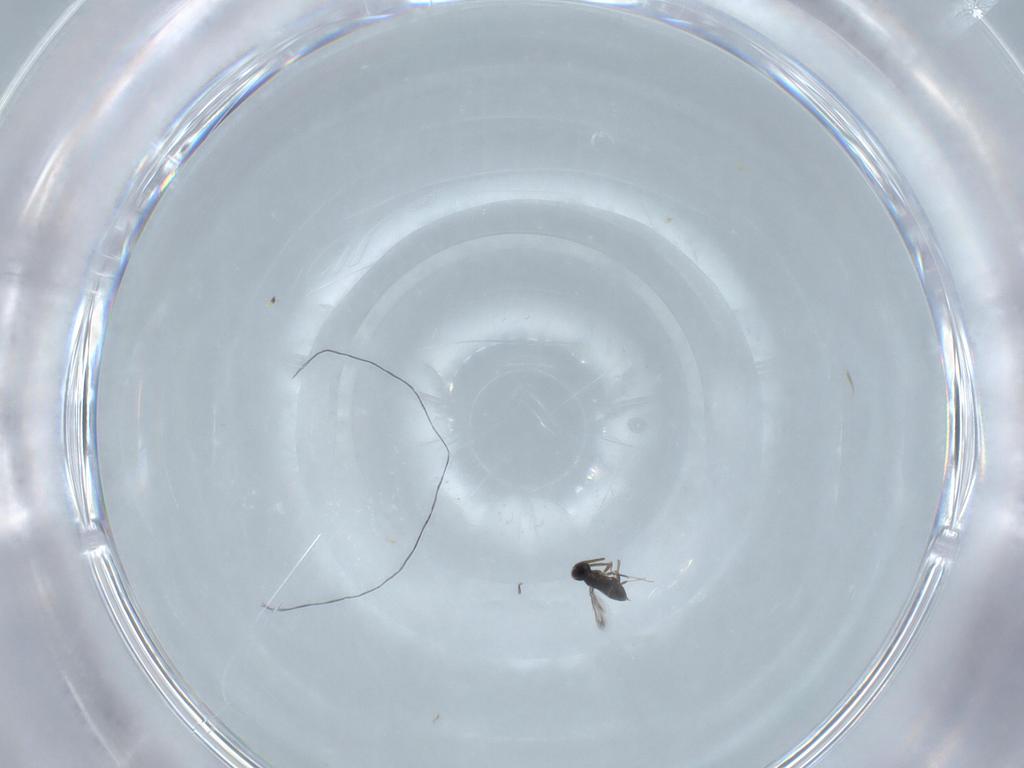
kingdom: Animalia
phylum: Arthropoda
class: Insecta
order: Hymenoptera
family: Signiphoridae
